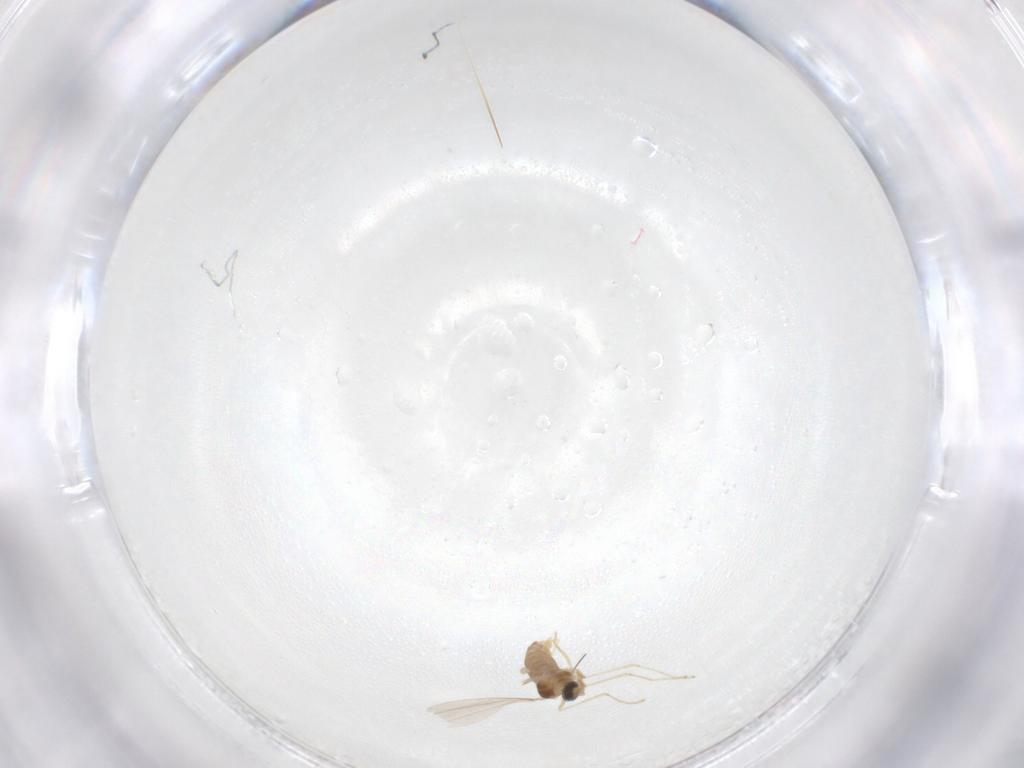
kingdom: Animalia
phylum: Arthropoda
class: Insecta
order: Diptera
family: Cecidomyiidae
